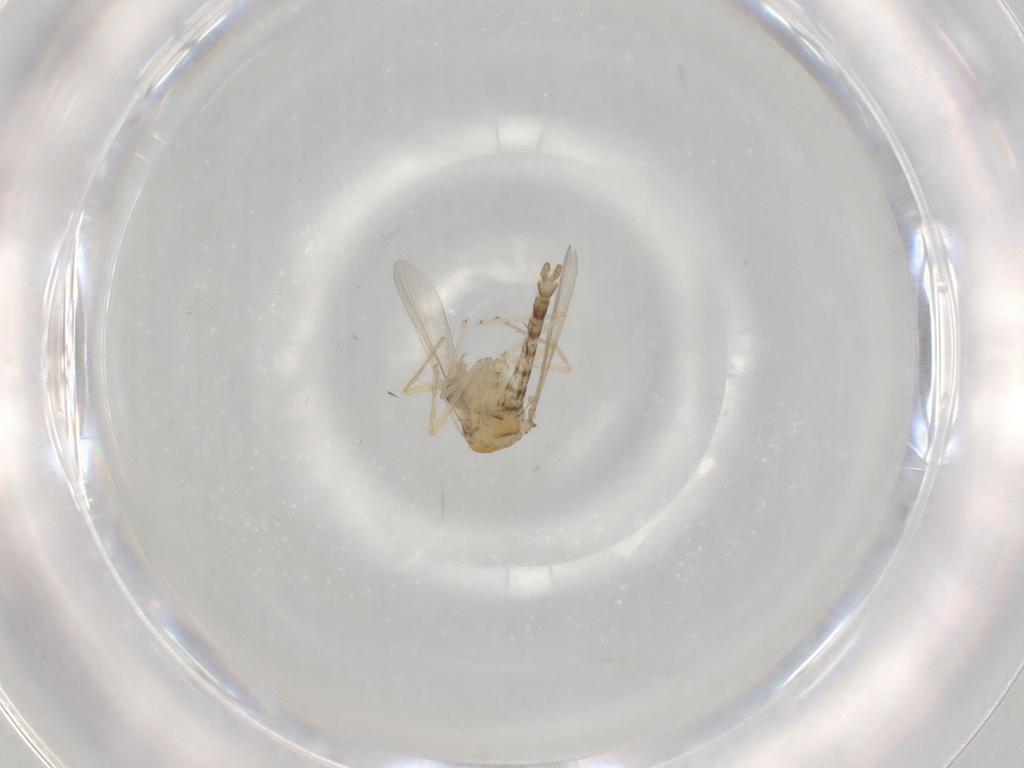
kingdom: Animalia
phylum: Arthropoda
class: Insecta
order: Diptera
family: Chironomidae
